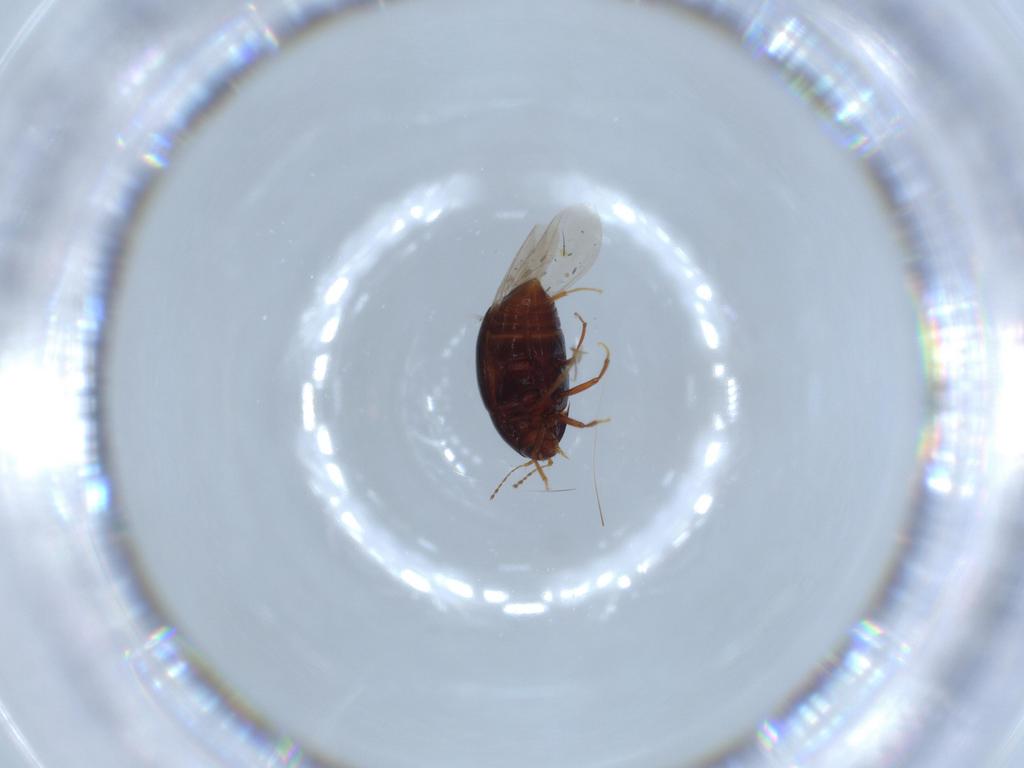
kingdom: Animalia
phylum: Arthropoda
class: Insecta
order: Coleoptera
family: Staphylinidae
